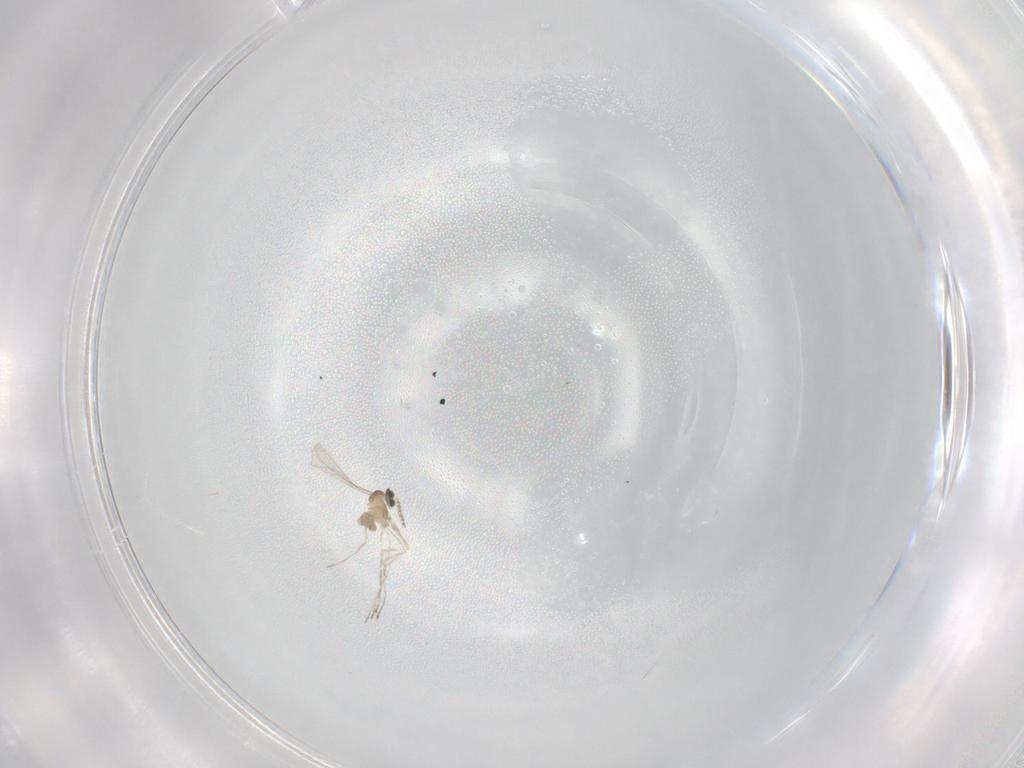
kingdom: Animalia
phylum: Arthropoda
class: Insecta
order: Diptera
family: Cecidomyiidae
